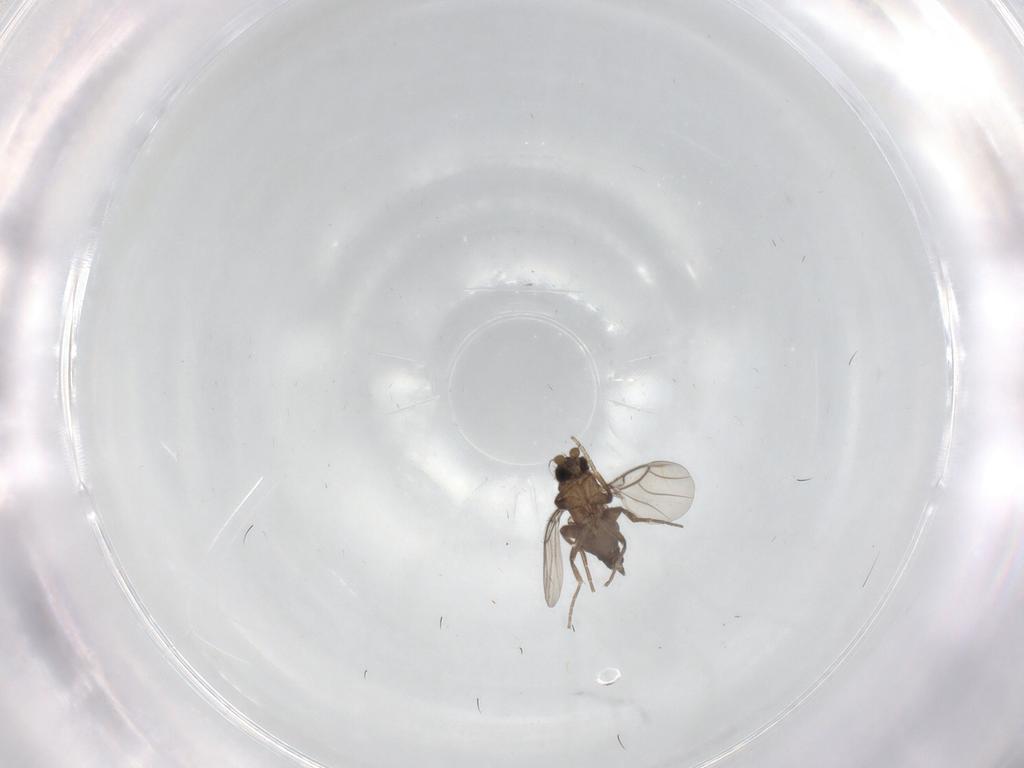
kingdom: Animalia
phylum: Arthropoda
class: Insecta
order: Diptera
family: Phoridae
